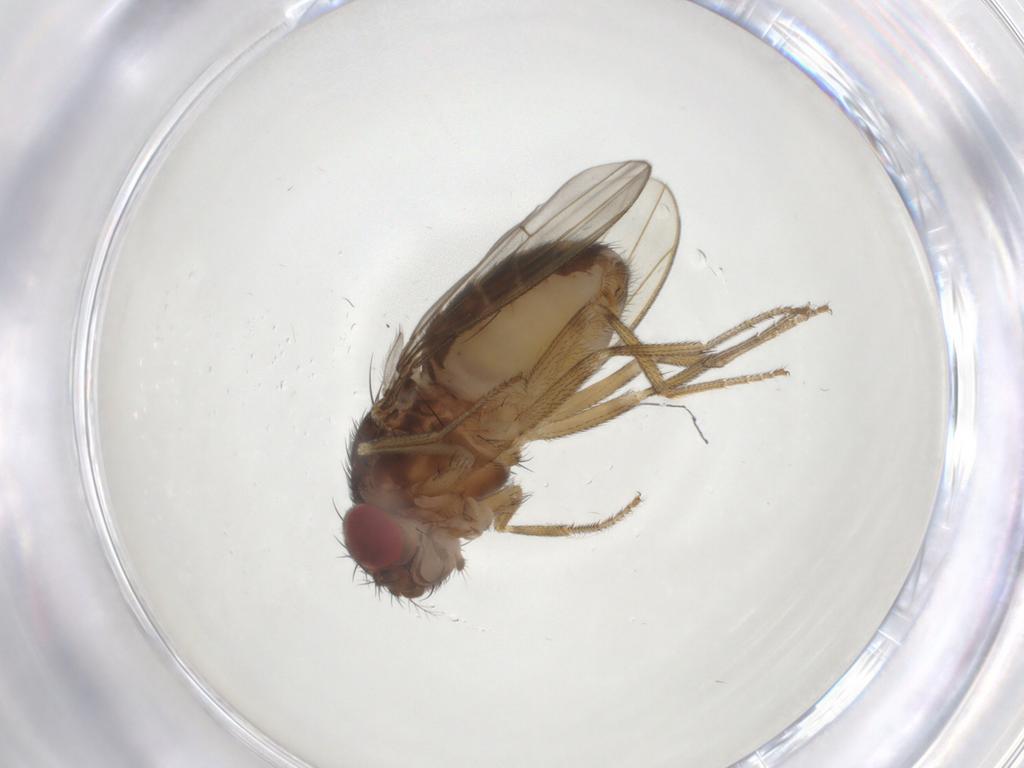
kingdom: Animalia
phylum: Arthropoda
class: Insecta
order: Diptera
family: Drosophilidae
